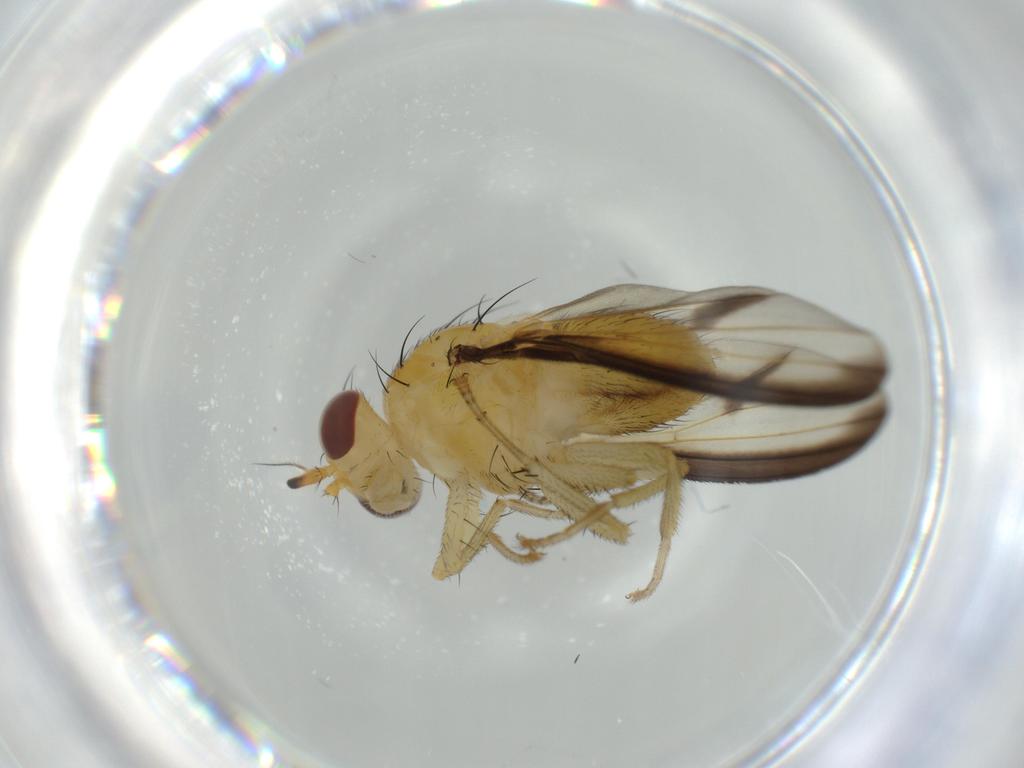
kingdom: Animalia
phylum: Arthropoda
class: Insecta
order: Diptera
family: Lauxaniidae
